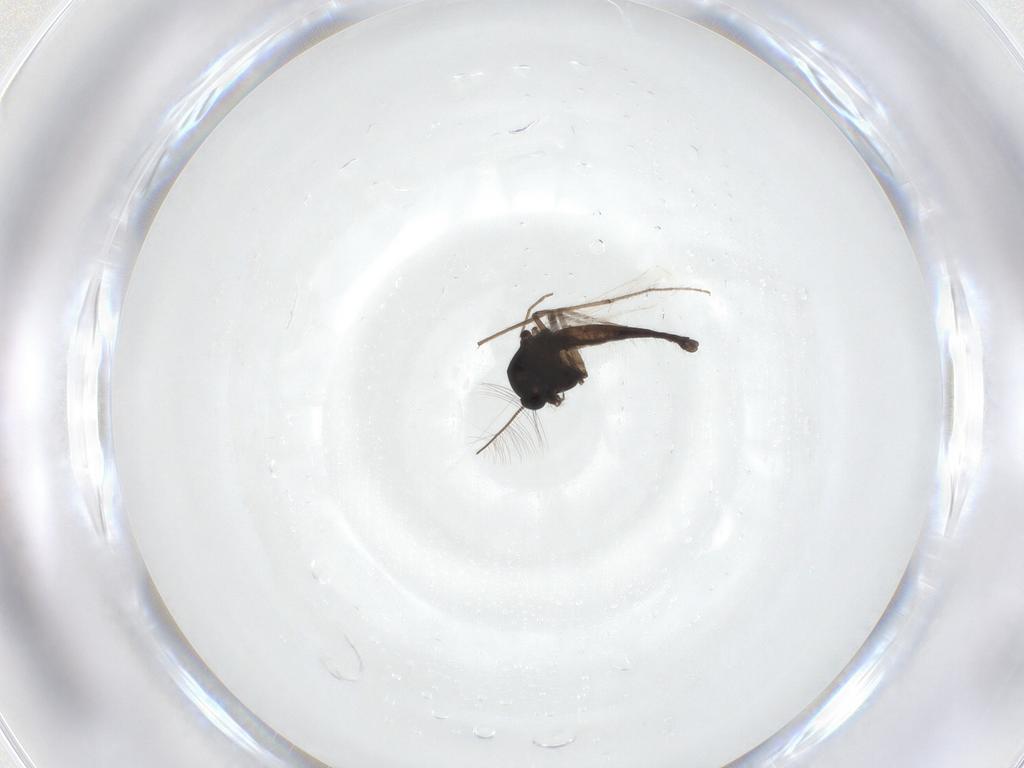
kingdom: Animalia
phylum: Arthropoda
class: Insecta
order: Diptera
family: Chironomidae
